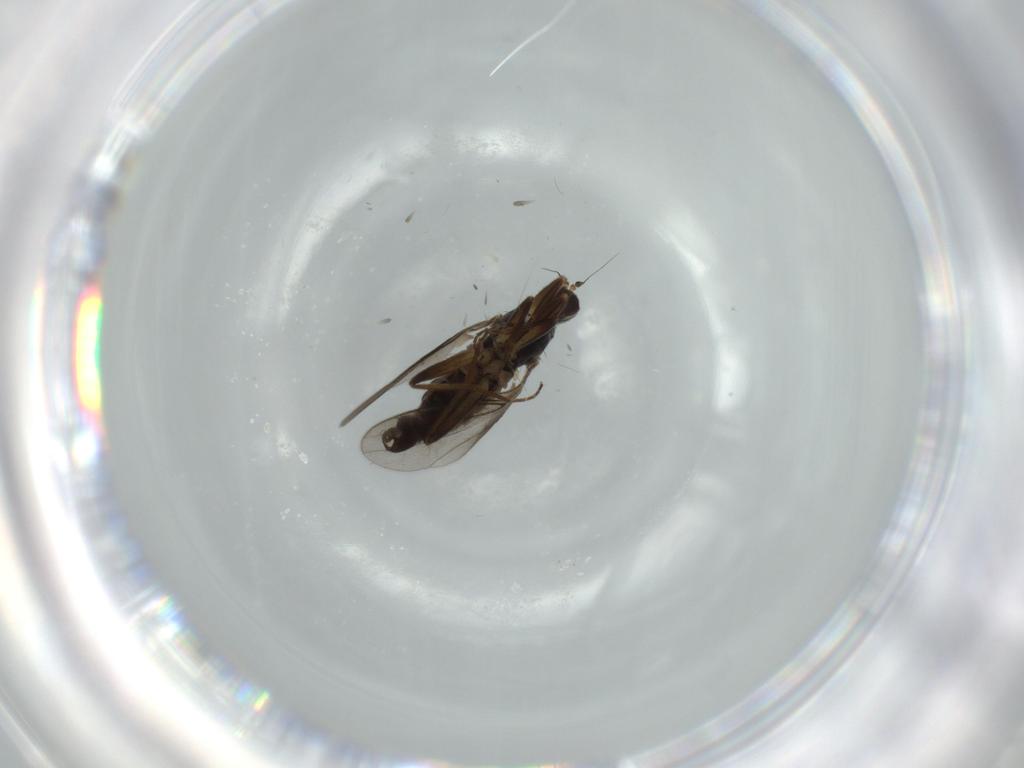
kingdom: Animalia
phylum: Arthropoda
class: Insecta
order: Diptera
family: Hybotidae
